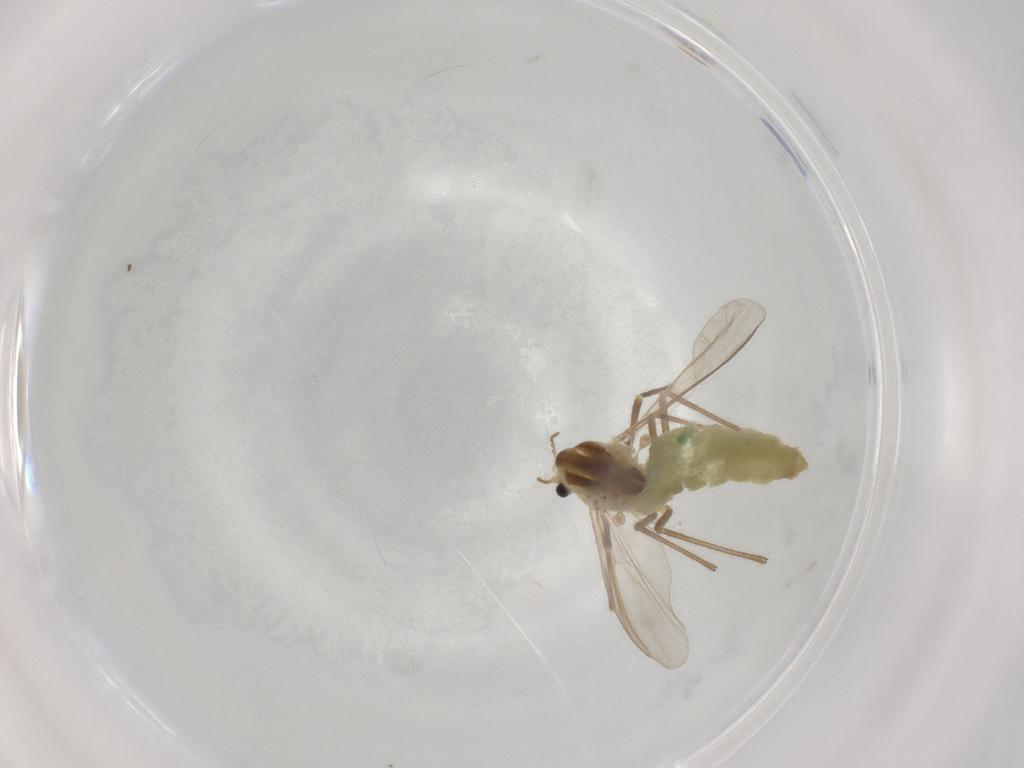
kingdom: Animalia
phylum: Arthropoda
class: Insecta
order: Diptera
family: Chironomidae
